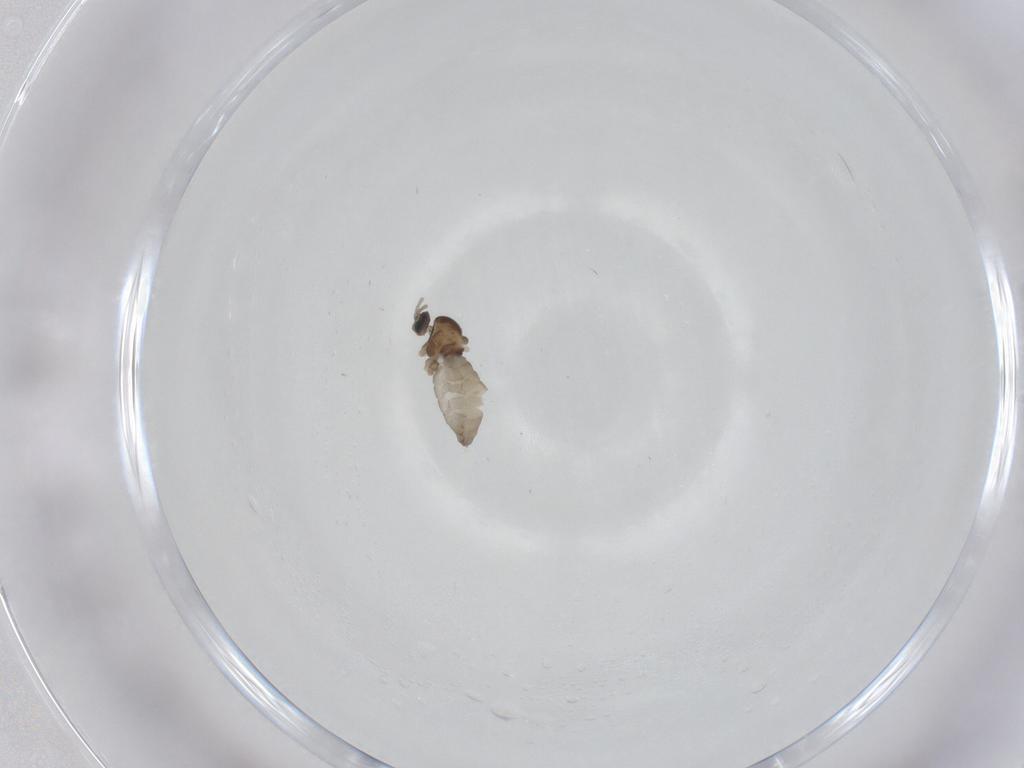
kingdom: Animalia
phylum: Arthropoda
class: Insecta
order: Diptera
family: Cecidomyiidae
